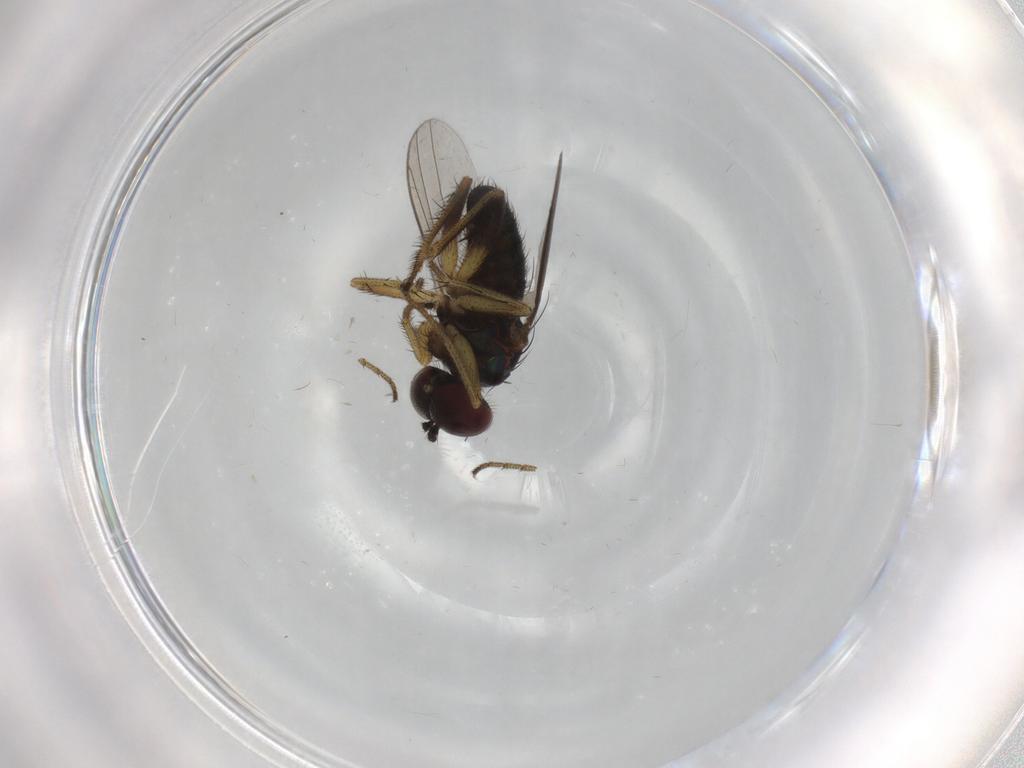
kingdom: Animalia
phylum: Arthropoda
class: Insecta
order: Diptera
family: Dolichopodidae
